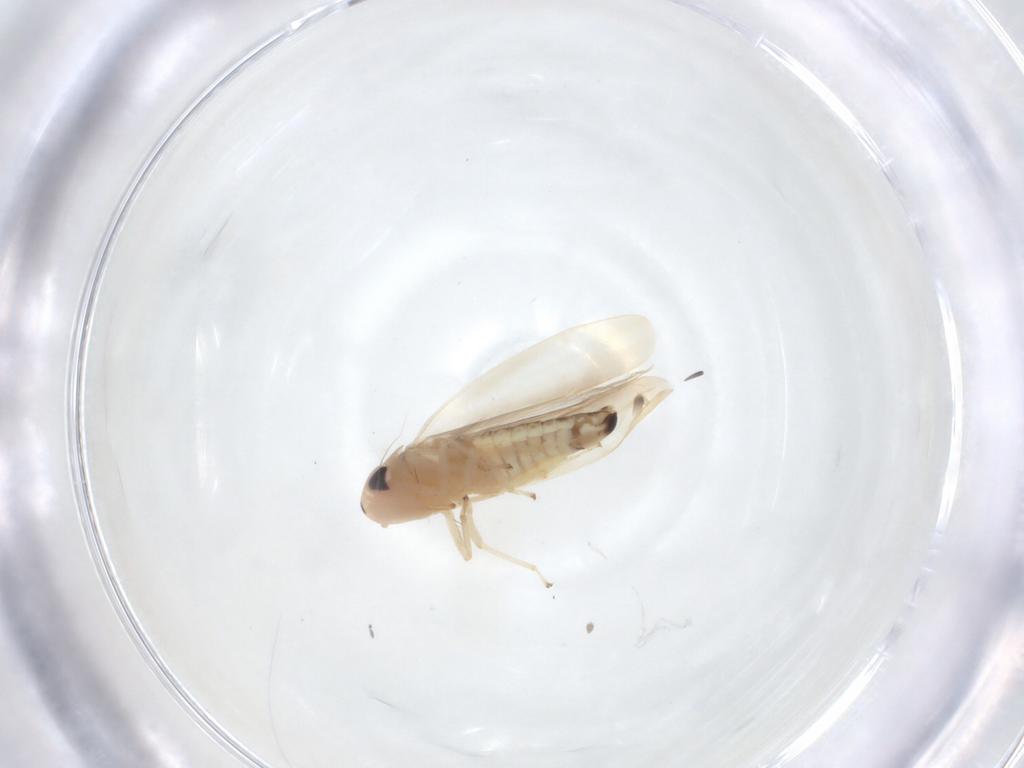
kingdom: Animalia
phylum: Arthropoda
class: Insecta
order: Hemiptera
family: Cicadellidae
